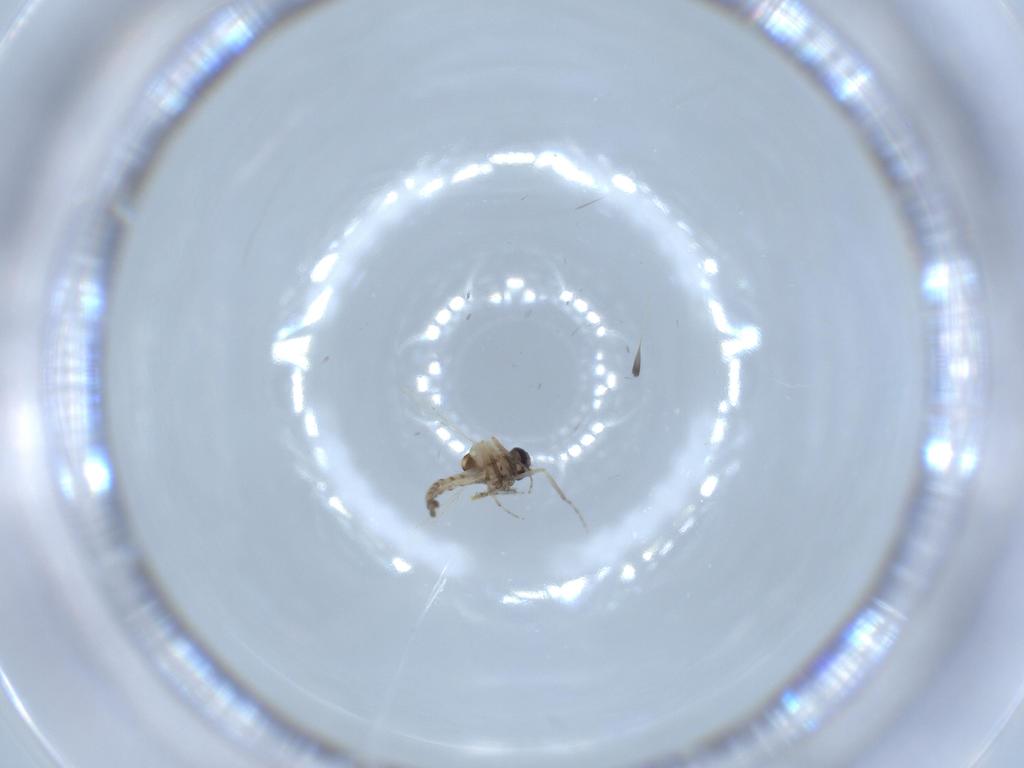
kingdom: Animalia
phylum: Arthropoda
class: Insecta
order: Diptera
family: Ceratopogonidae
